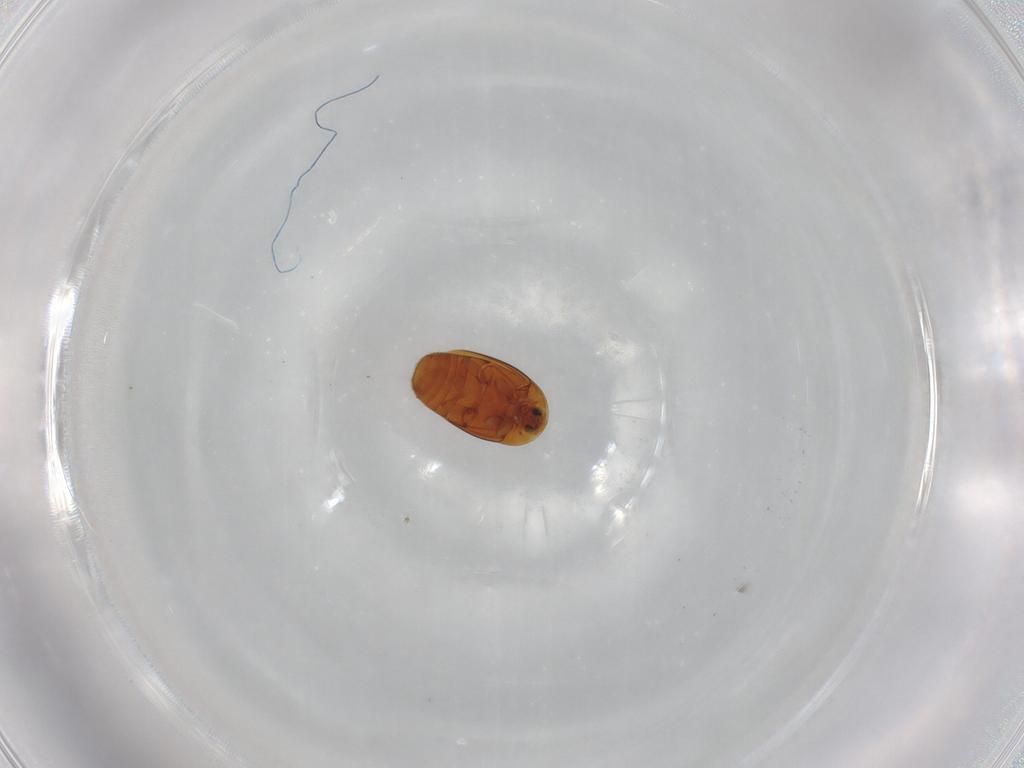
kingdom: Animalia
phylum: Arthropoda
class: Insecta
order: Coleoptera
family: Corylophidae
